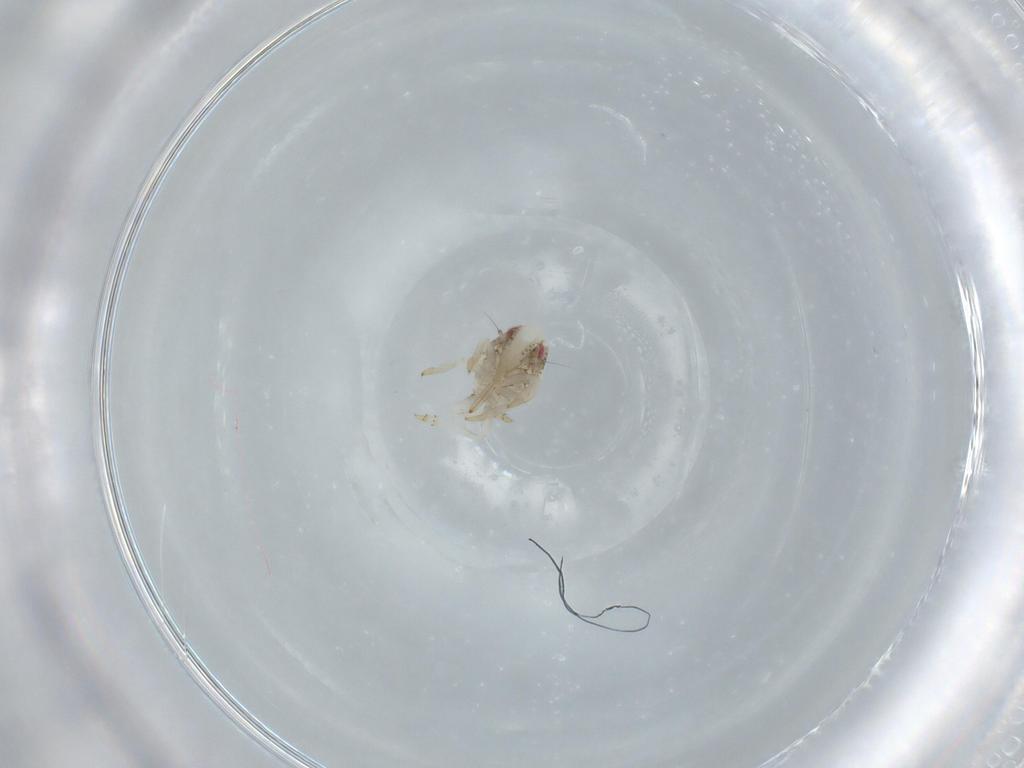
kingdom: Animalia
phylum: Arthropoda
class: Insecta
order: Hemiptera
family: Acanaloniidae
